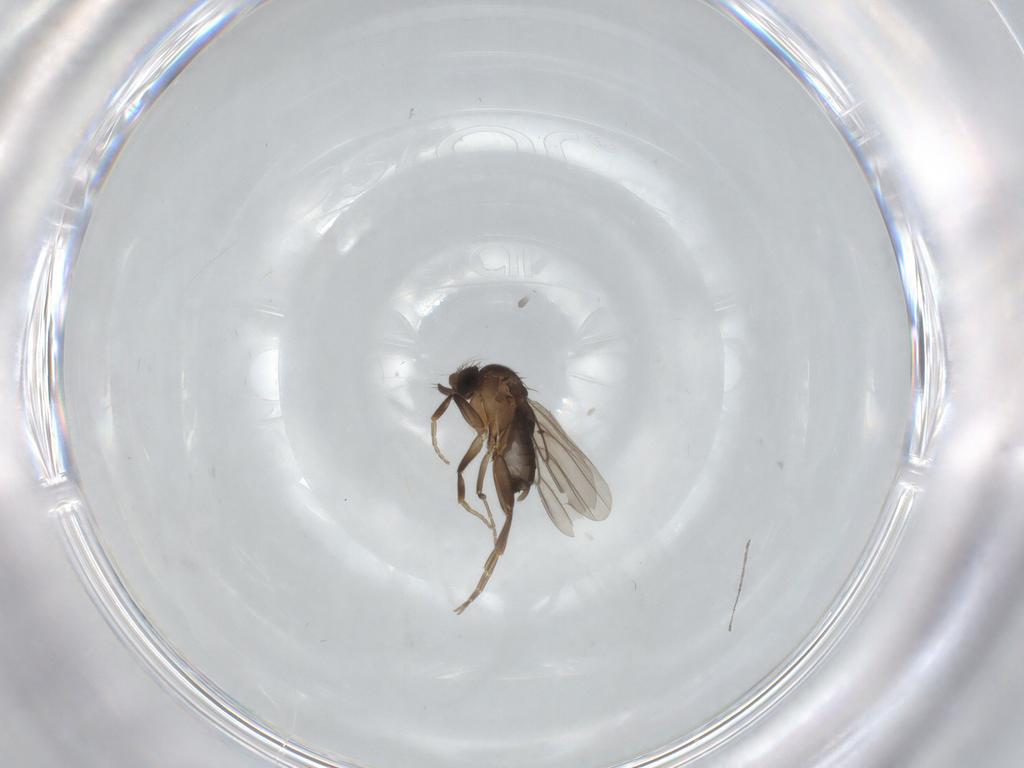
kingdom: Animalia
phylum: Arthropoda
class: Insecta
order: Diptera
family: Chironomidae
